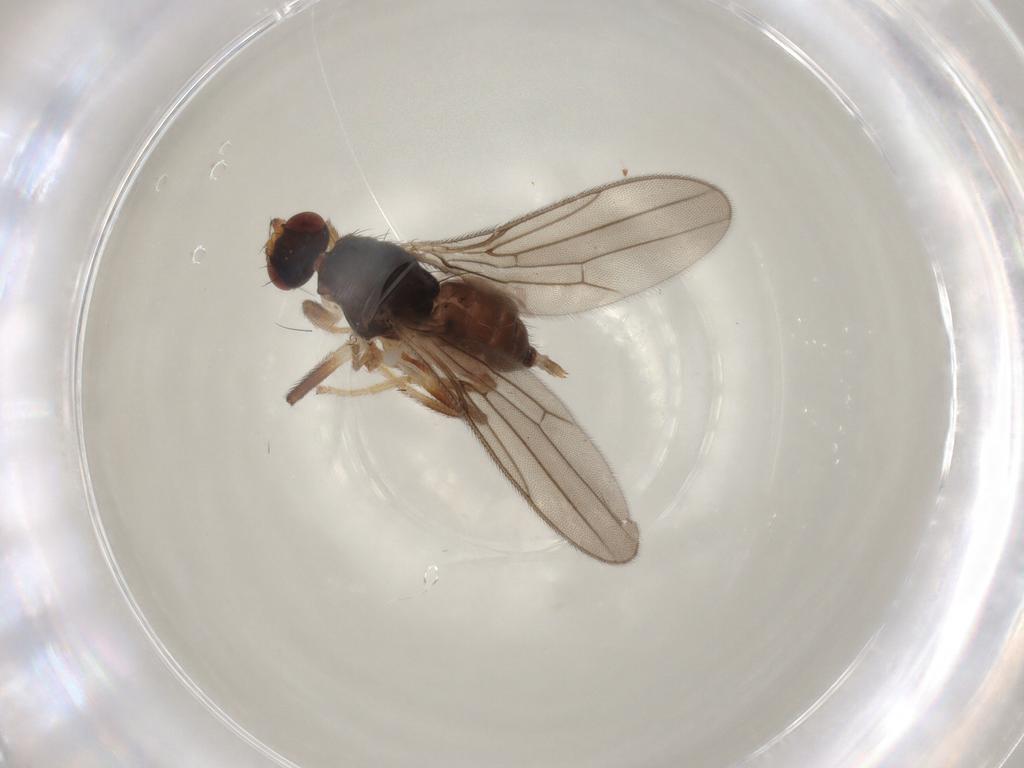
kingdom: Animalia
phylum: Arthropoda
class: Insecta
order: Diptera
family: Chloropidae
